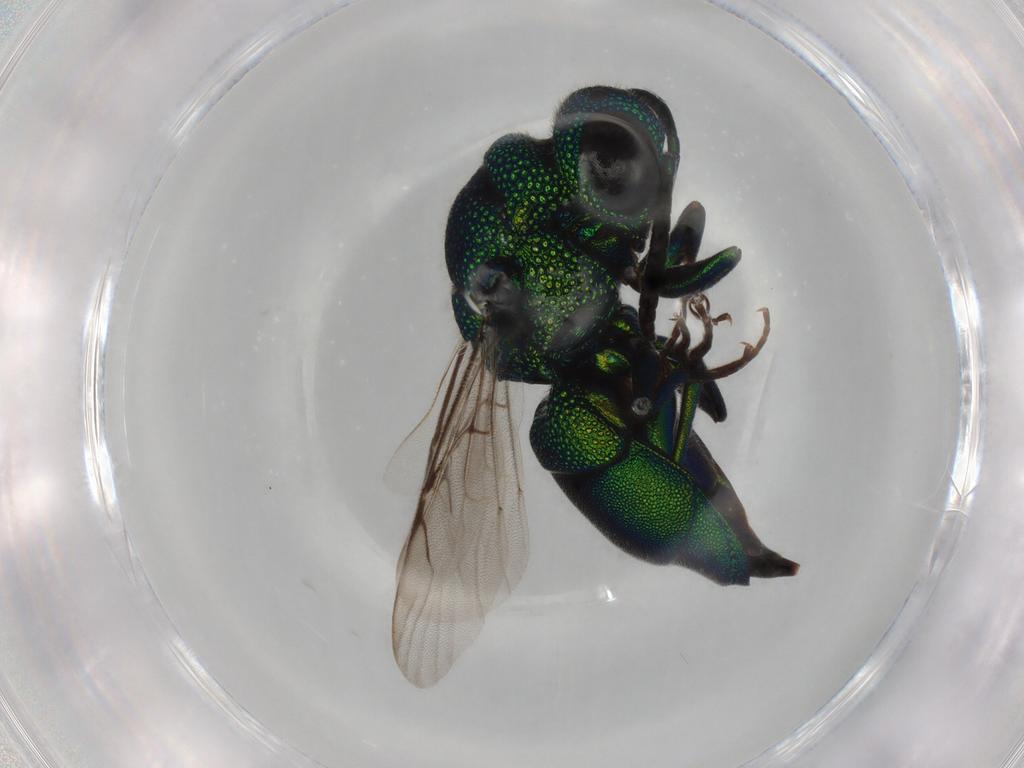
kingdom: Animalia
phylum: Arthropoda
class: Insecta
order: Hymenoptera
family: Chrysididae
